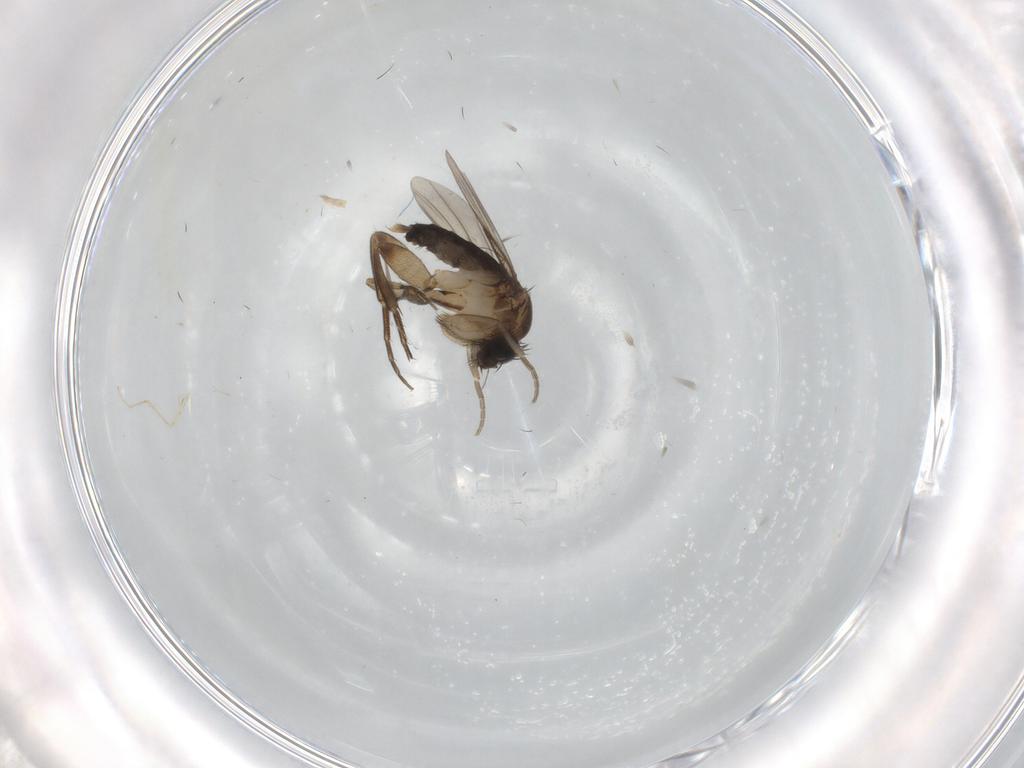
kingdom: Animalia
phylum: Arthropoda
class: Insecta
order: Diptera
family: Phoridae
